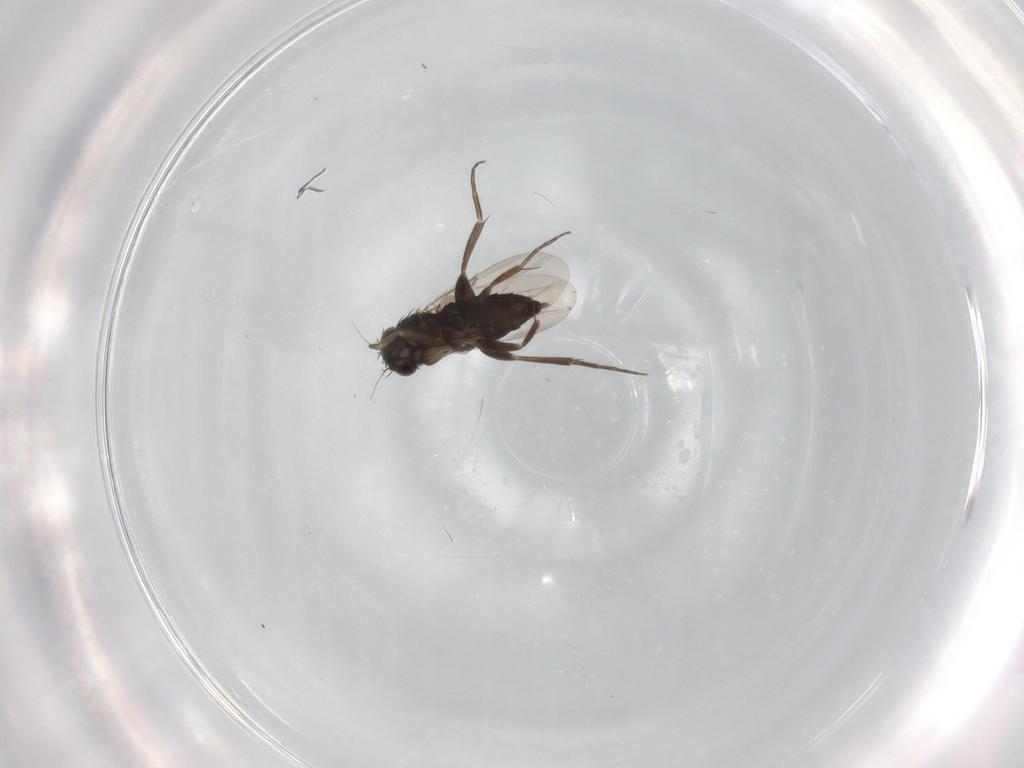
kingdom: Animalia
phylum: Arthropoda
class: Insecta
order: Diptera
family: Phoridae
